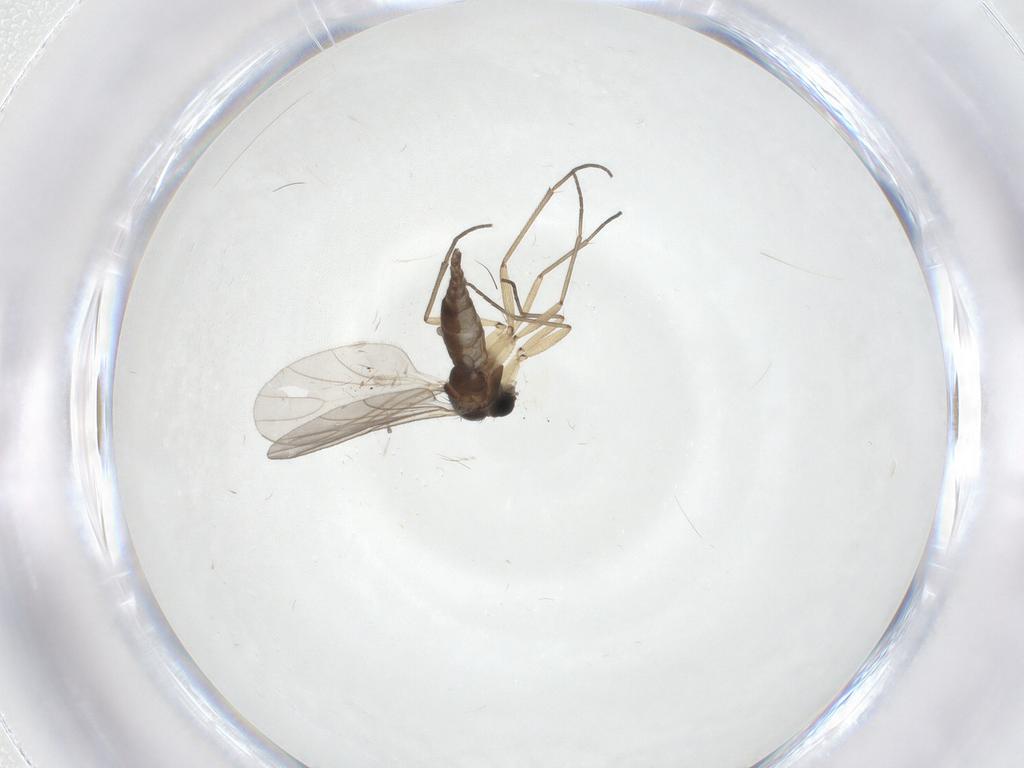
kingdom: Animalia
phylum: Arthropoda
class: Insecta
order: Diptera
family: Sciaridae
